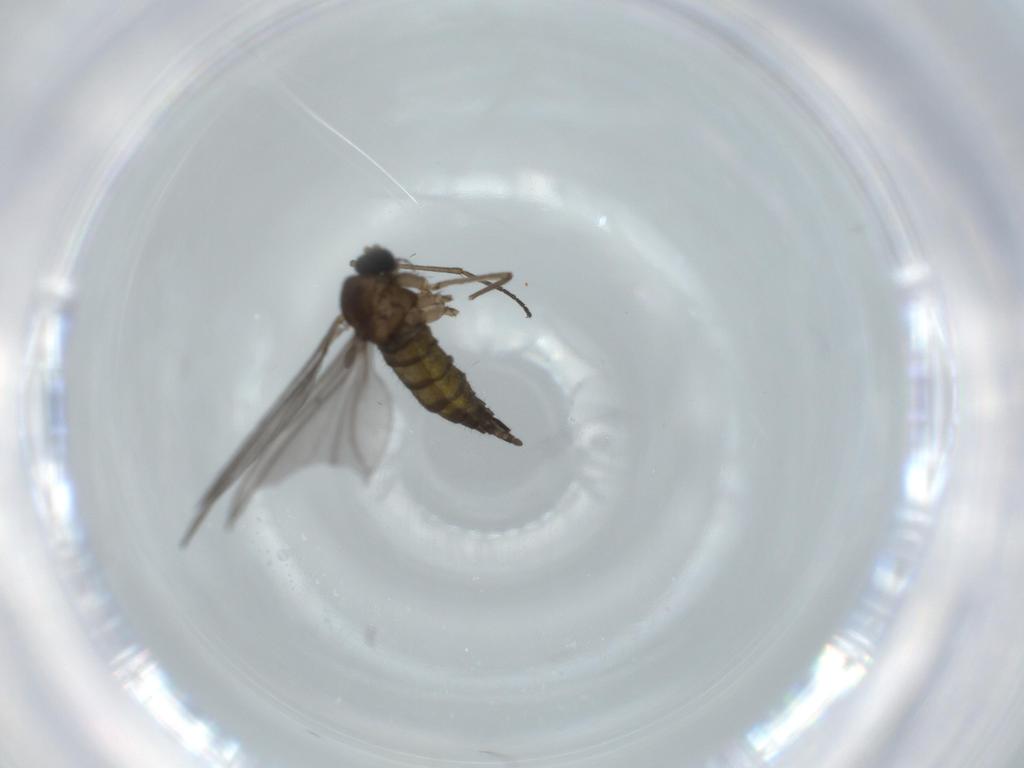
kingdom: Animalia
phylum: Arthropoda
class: Insecta
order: Diptera
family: Sarcophagidae
